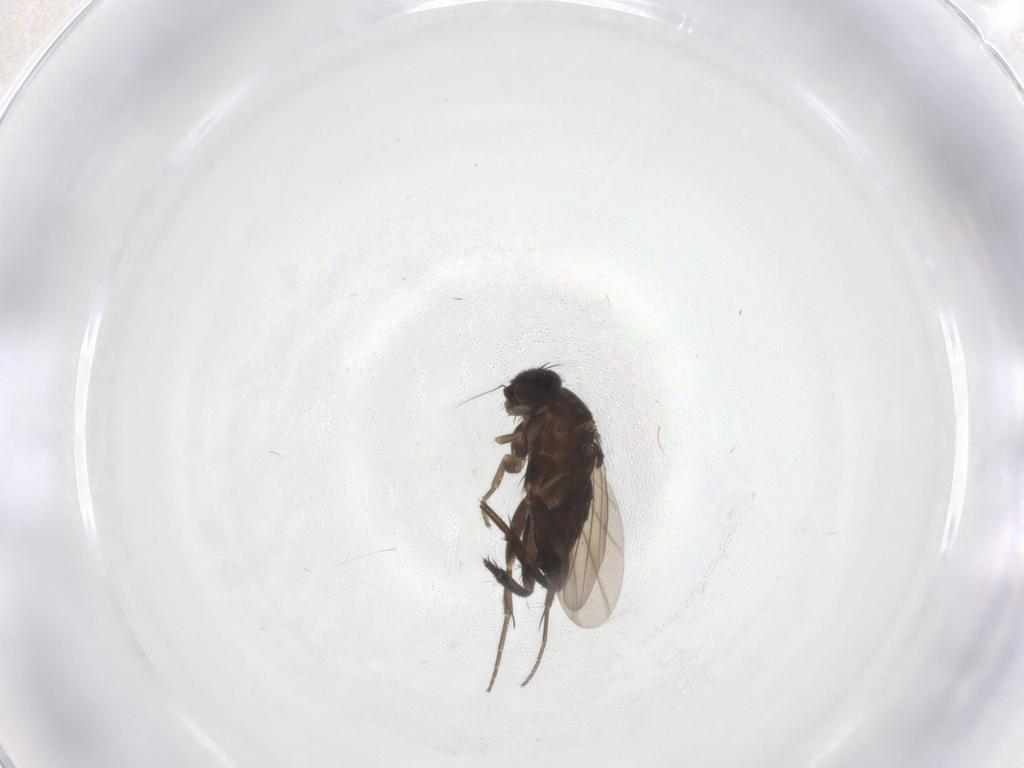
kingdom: Animalia
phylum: Arthropoda
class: Insecta
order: Diptera
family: Phoridae
